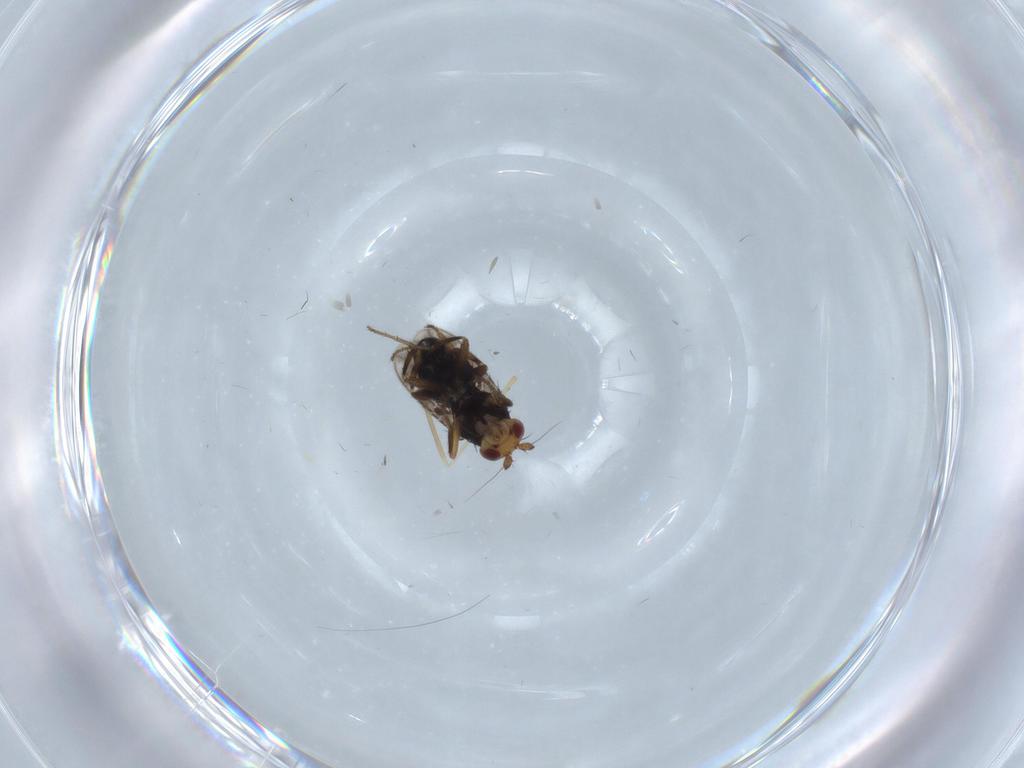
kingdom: Animalia
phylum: Arthropoda
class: Insecta
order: Diptera
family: Sphaeroceridae
